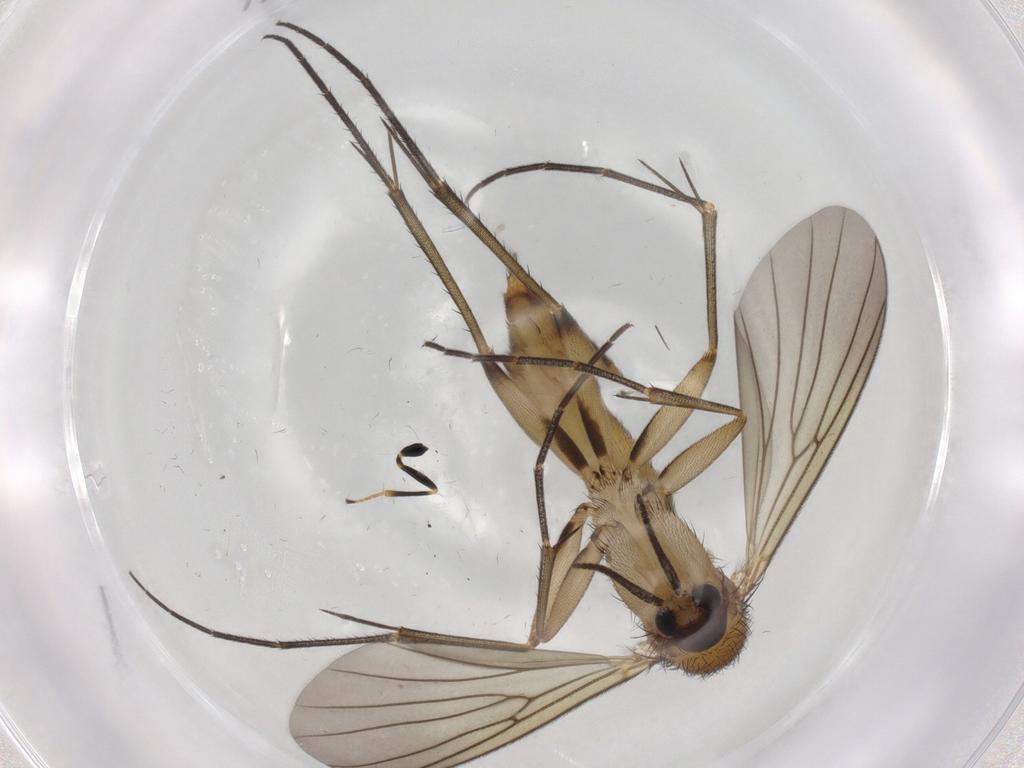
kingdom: Animalia
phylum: Arthropoda
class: Insecta
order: Diptera
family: Mycetophilidae
